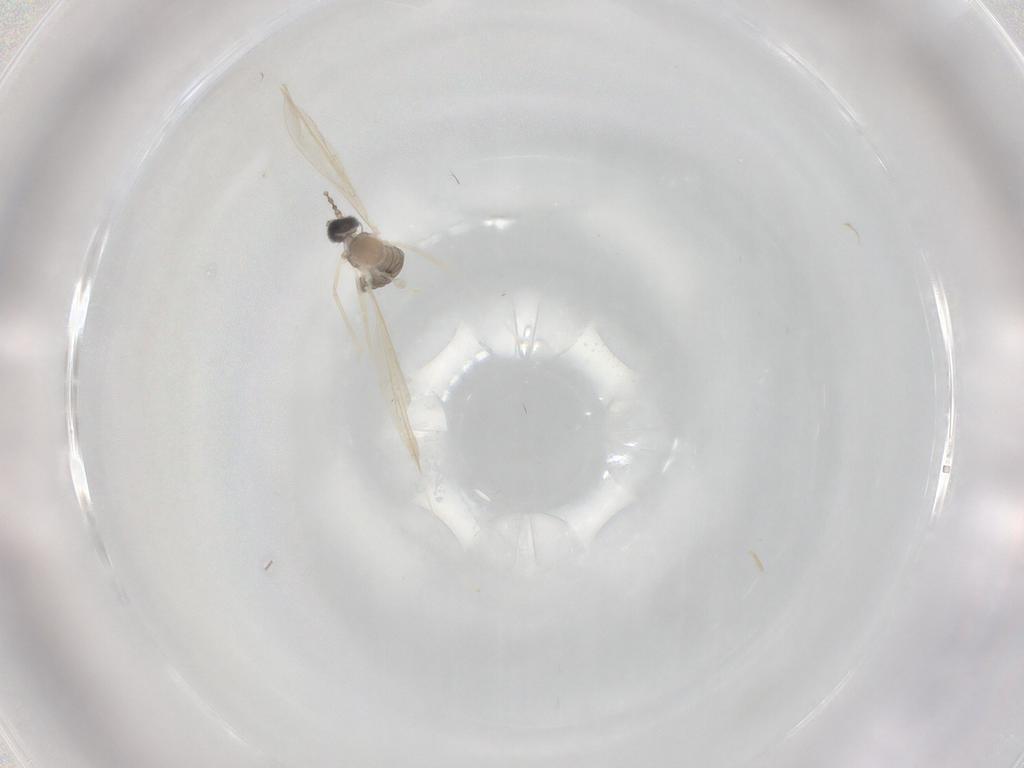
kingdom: Animalia
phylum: Arthropoda
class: Insecta
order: Diptera
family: Cecidomyiidae
